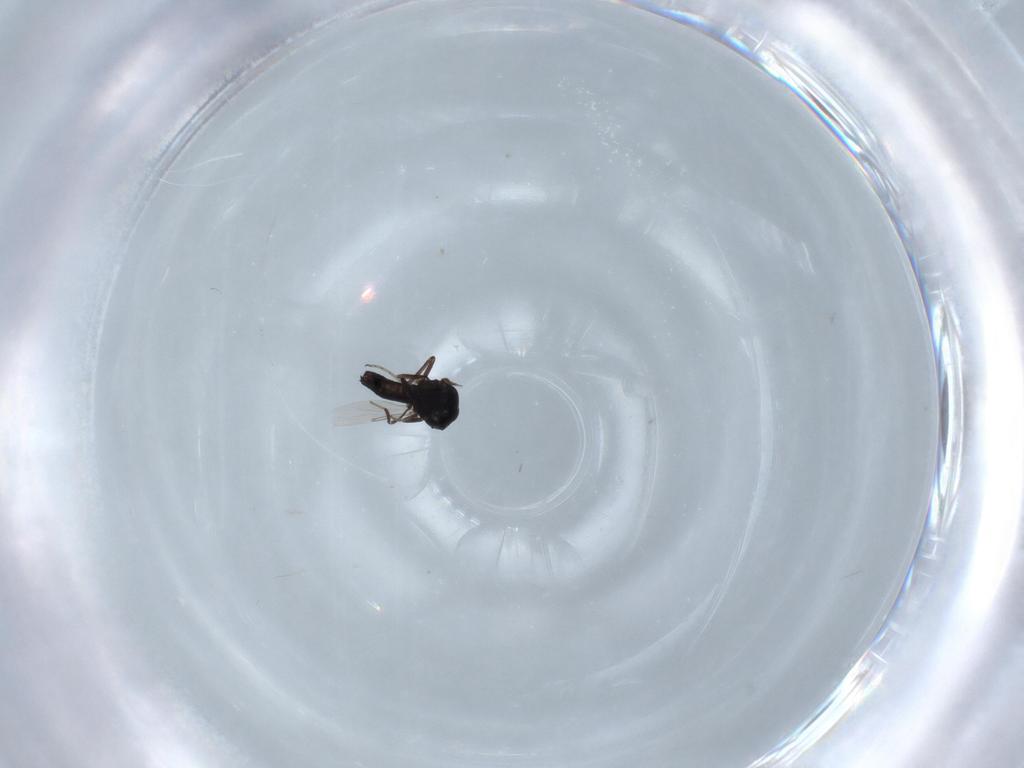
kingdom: Animalia
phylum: Arthropoda
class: Insecta
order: Diptera
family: Ceratopogonidae
